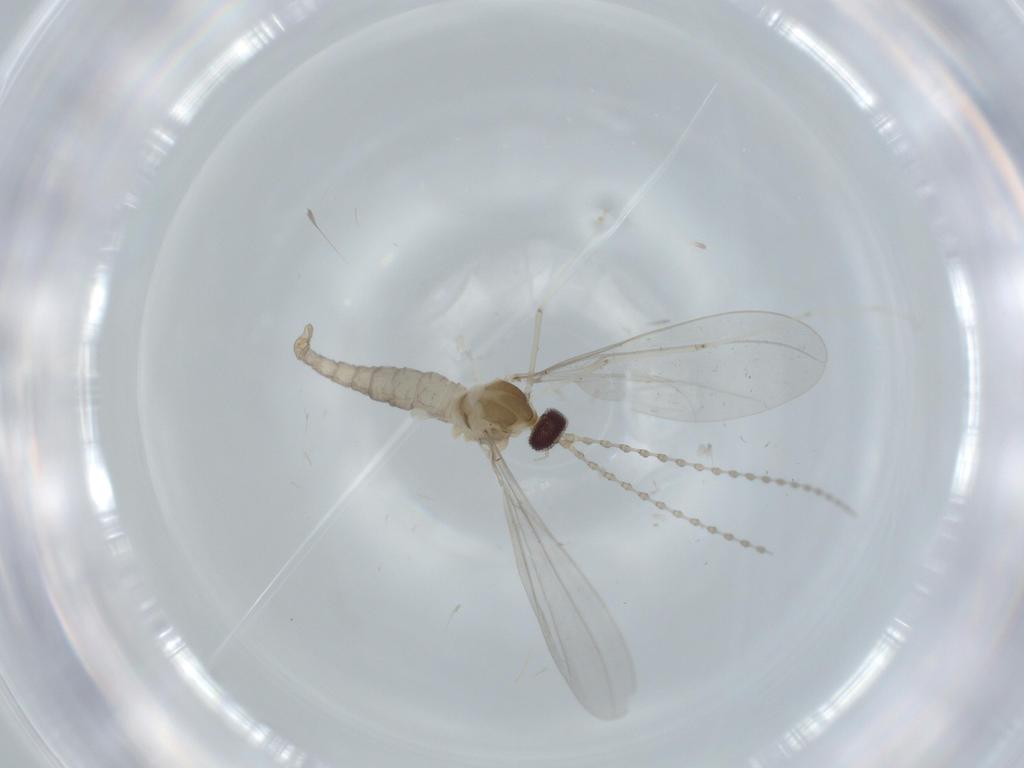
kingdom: Animalia
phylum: Arthropoda
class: Insecta
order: Diptera
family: Cecidomyiidae
